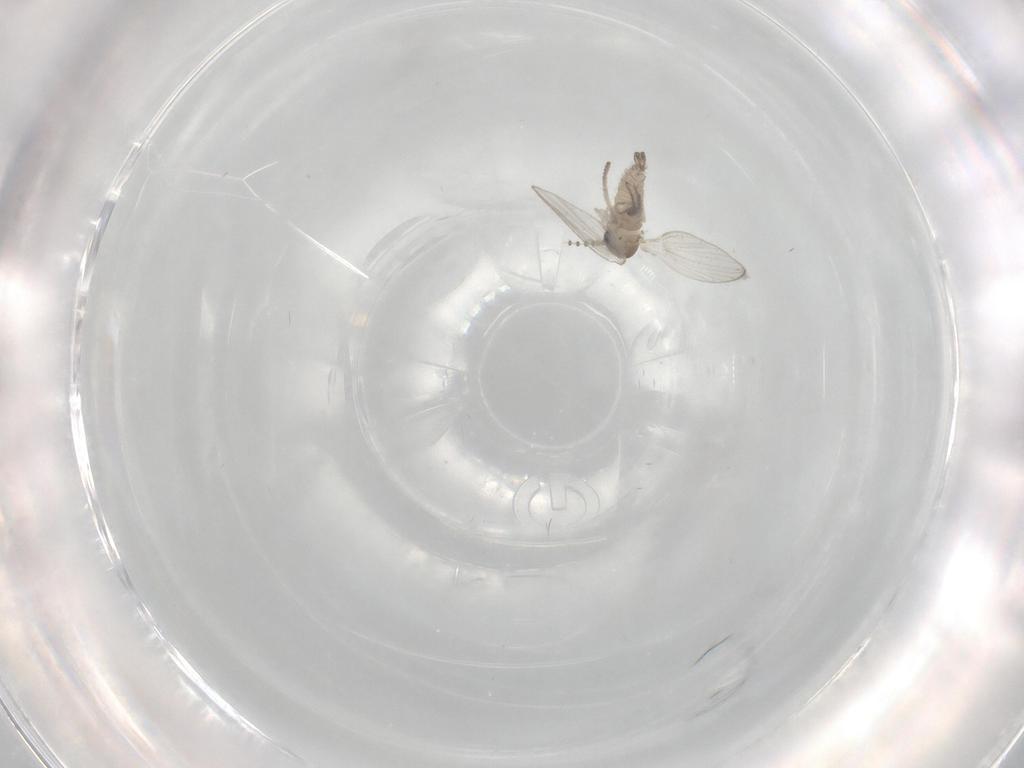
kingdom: Animalia
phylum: Arthropoda
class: Insecta
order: Diptera
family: Psychodidae
